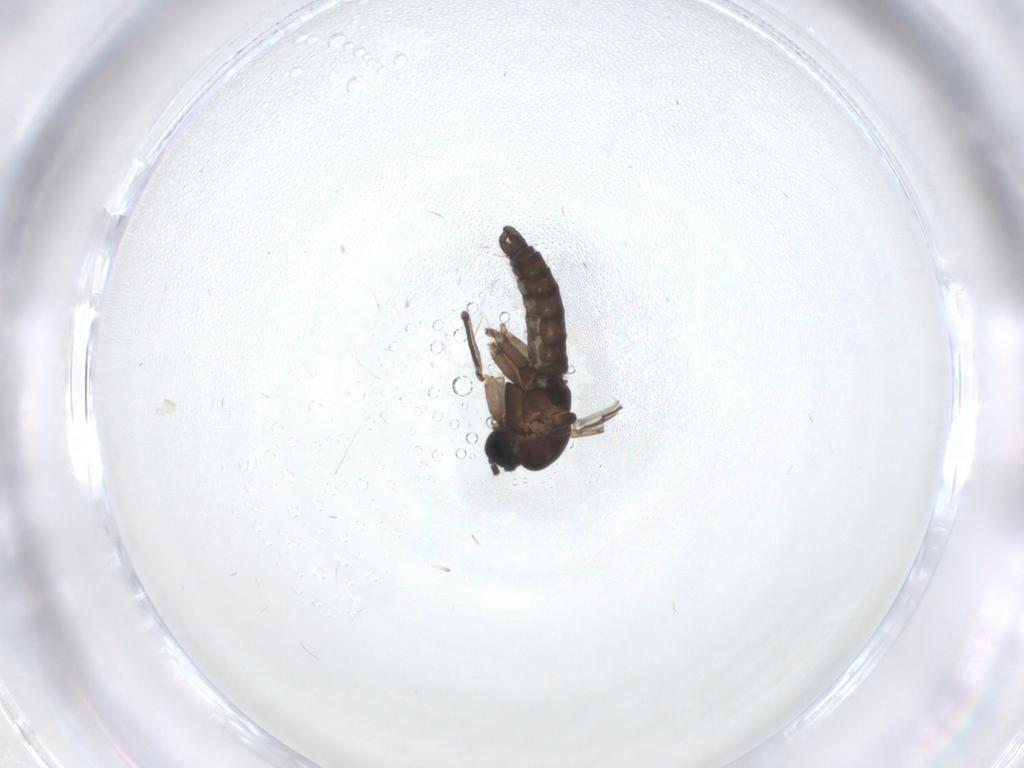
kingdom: Animalia
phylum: Arthropoda
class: Insecta
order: Diptera
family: Sciaridae
